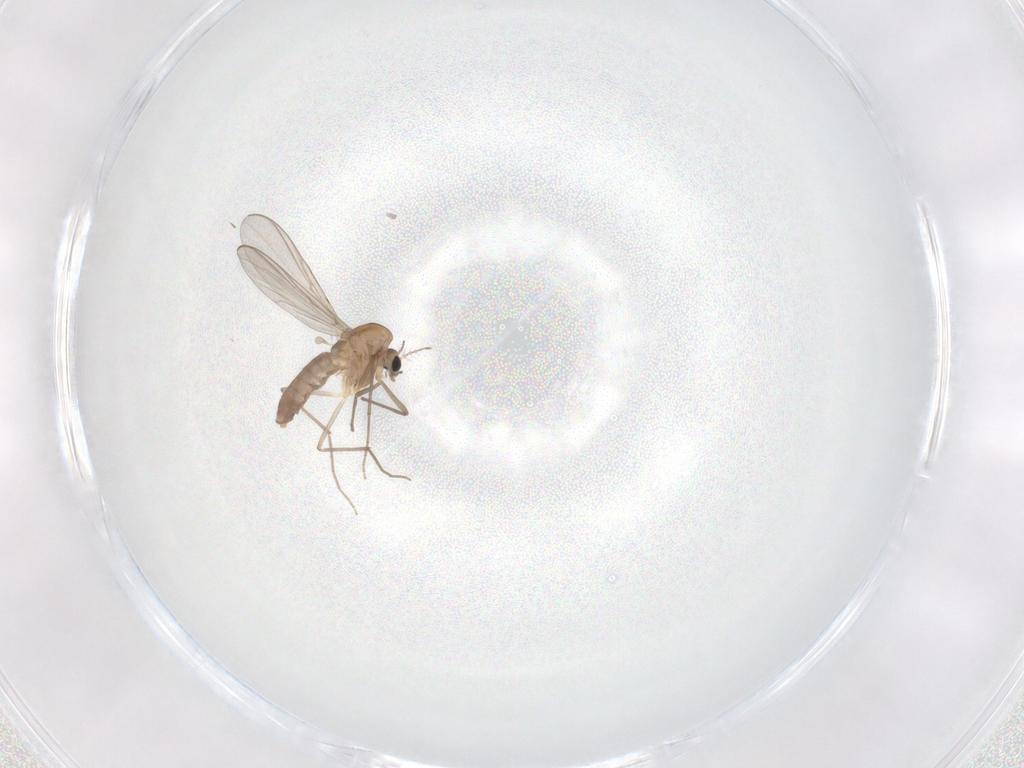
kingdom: Animalia
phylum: Arthropoda
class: Insecta
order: Diptera
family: Chironomidae
